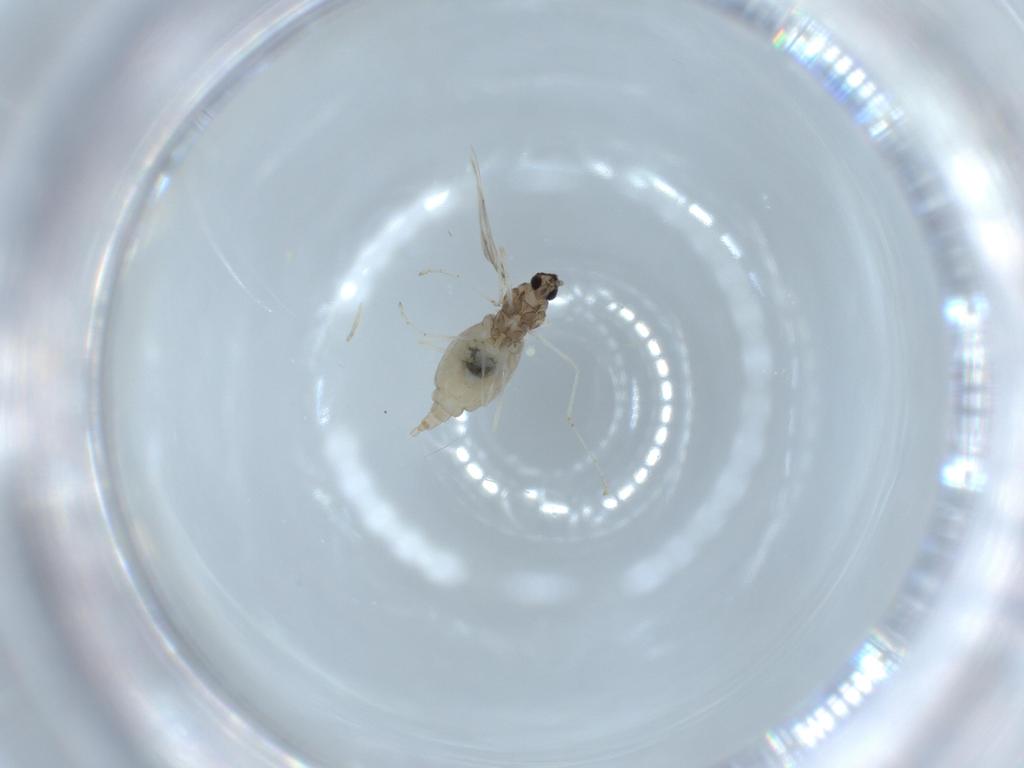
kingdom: Animalia
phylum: Arthropoda
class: Insecta
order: Diptera
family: Cecidomyiidae
